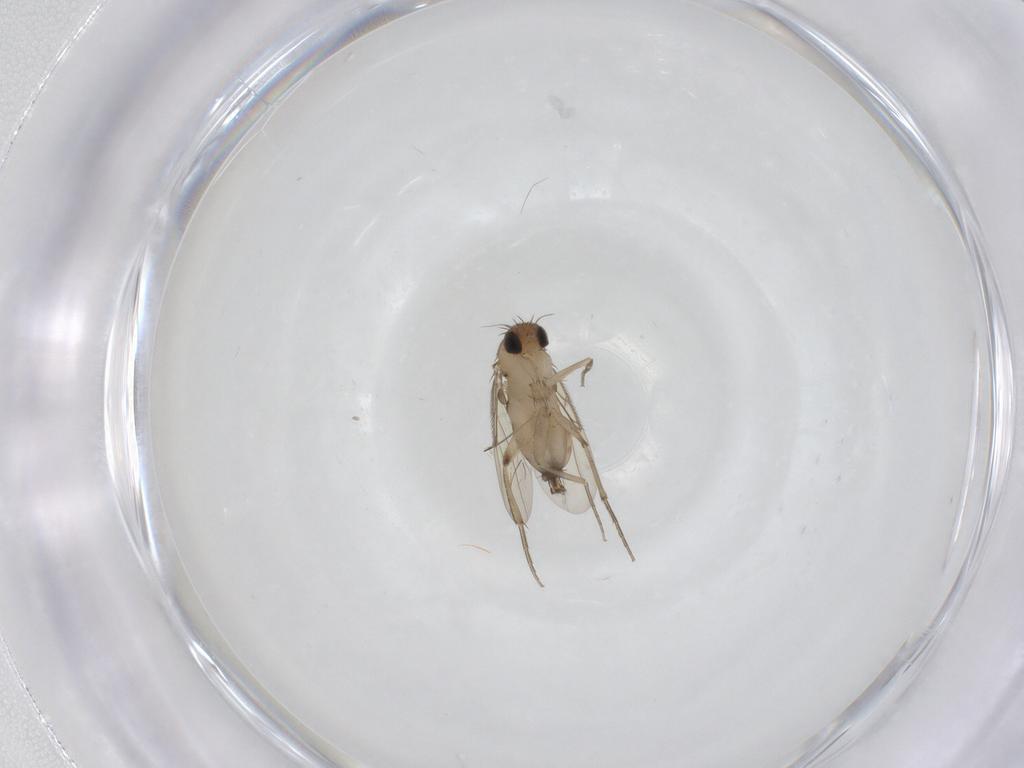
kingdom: Animalia
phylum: Arthropoda
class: Insecta
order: Diptera
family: Phoridae
